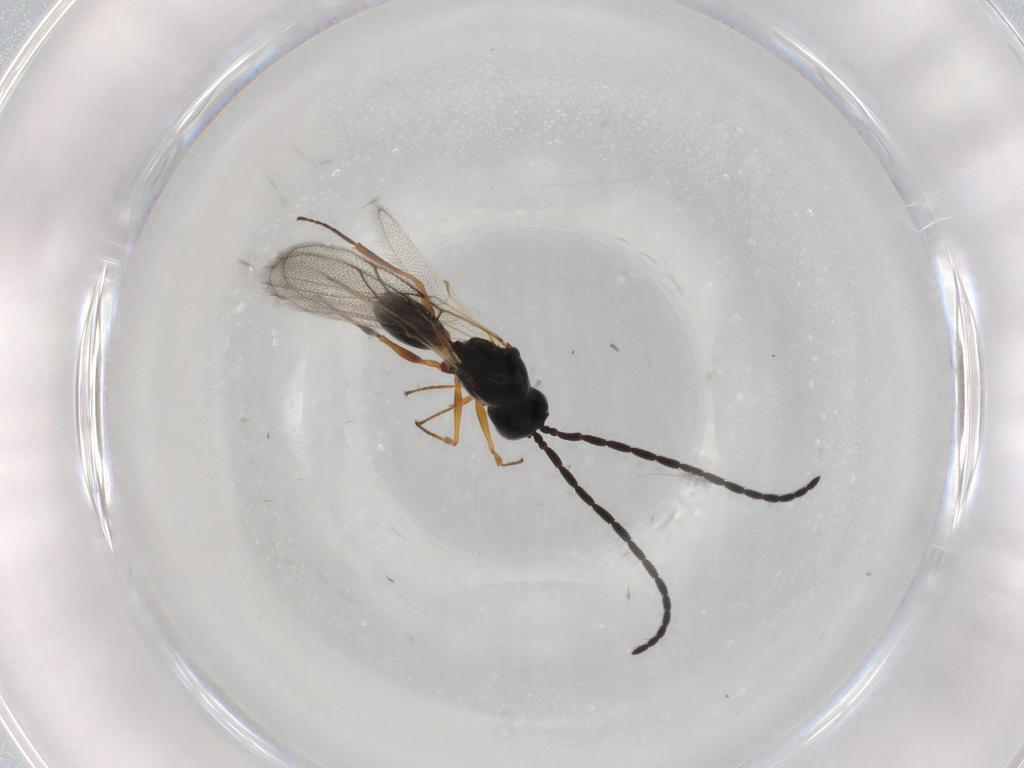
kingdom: Animalia
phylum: Arthropoda
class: Insecta
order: Hymenoptera
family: Figitidae
